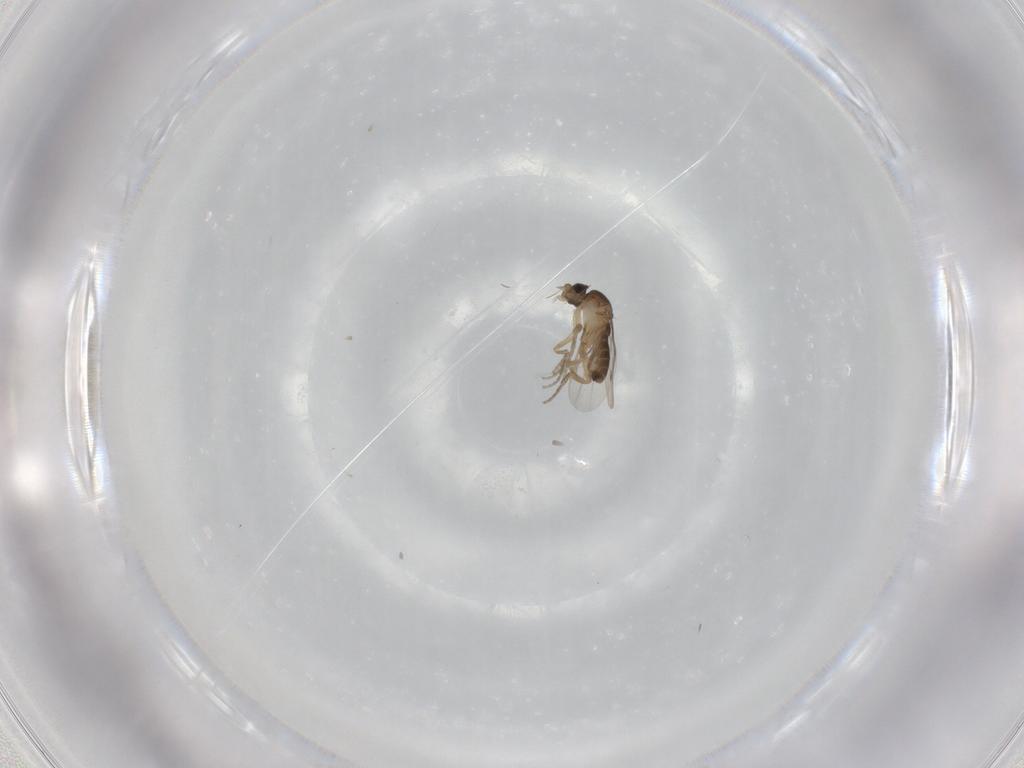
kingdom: Animalia
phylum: Arthropoda
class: Insecta
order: Diptera
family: Phoridae
